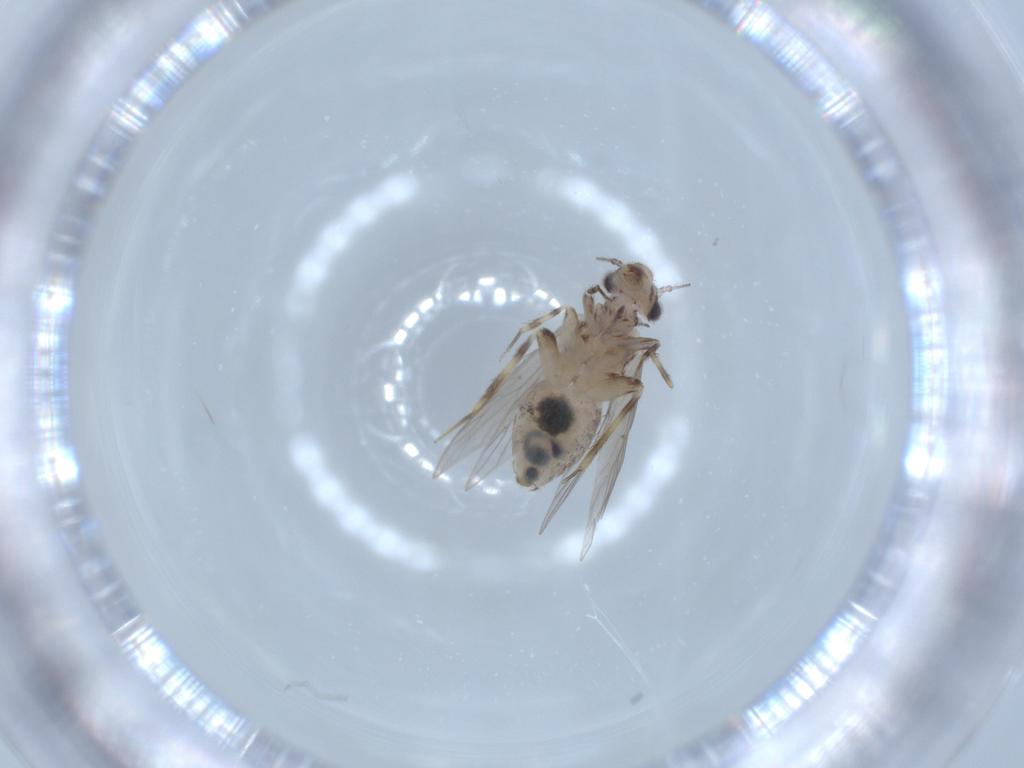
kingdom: Animalia
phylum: Arthropoda
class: Insecta
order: Psocodea
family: Lepidopsocidae
